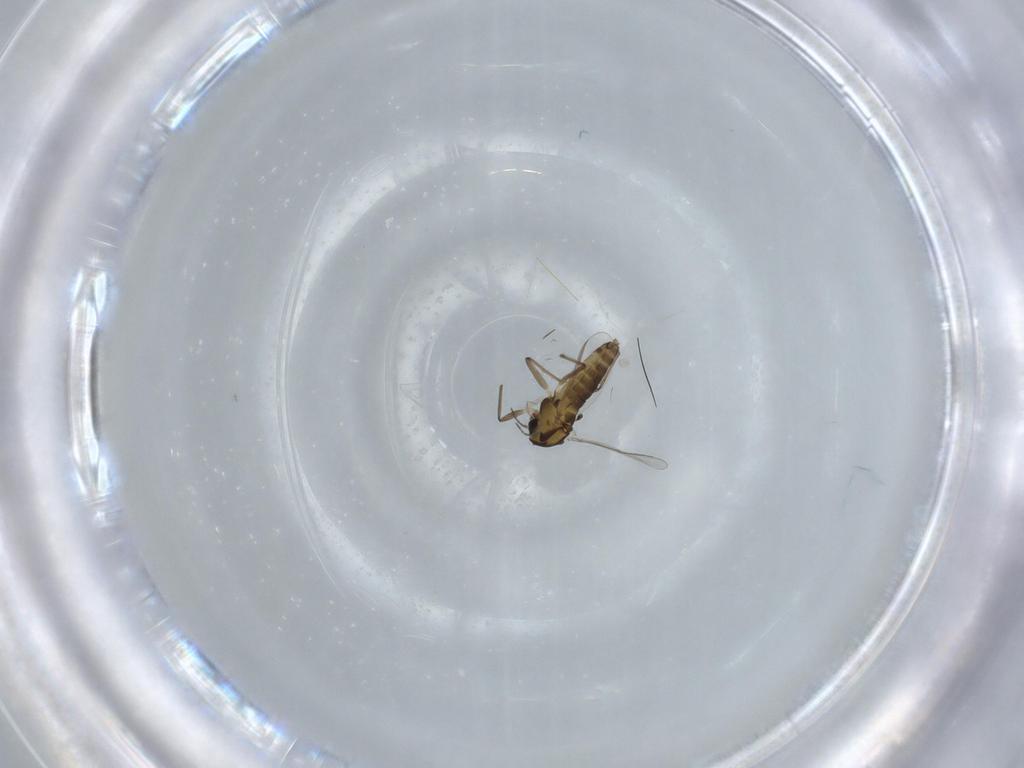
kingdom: Animalia
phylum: Arthropoda
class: Insecta
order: Diptera
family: Chironomidae
